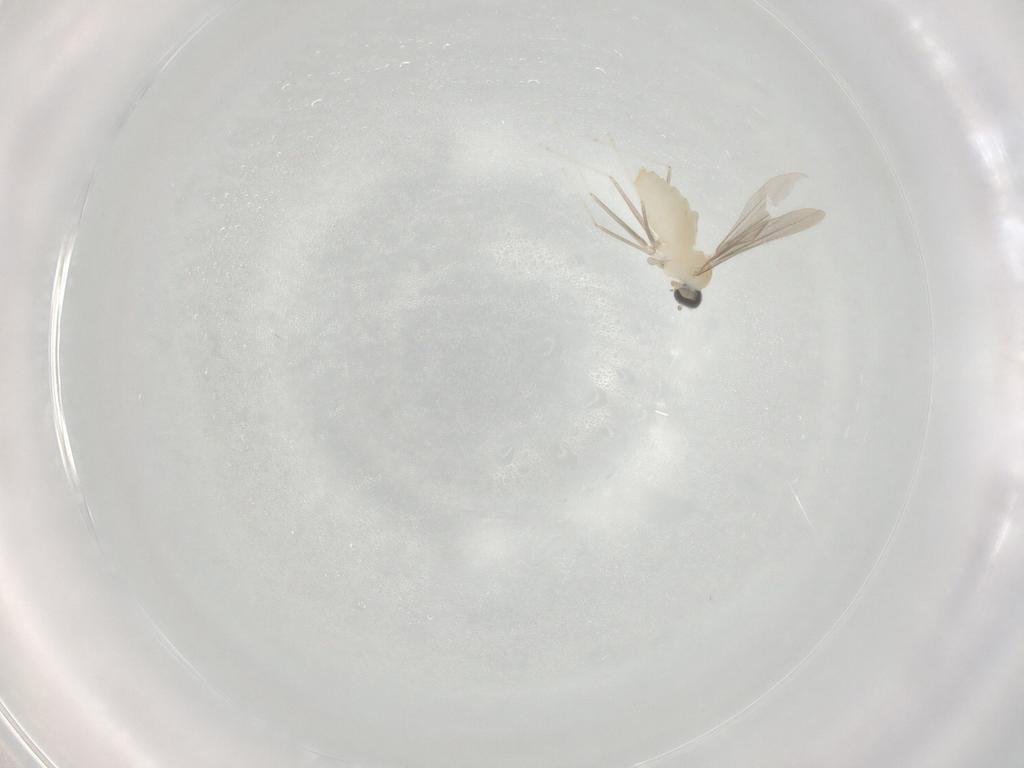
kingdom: Animalia
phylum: Arthropoda
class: Insecta
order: Diptera
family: Cecidomyiidae
